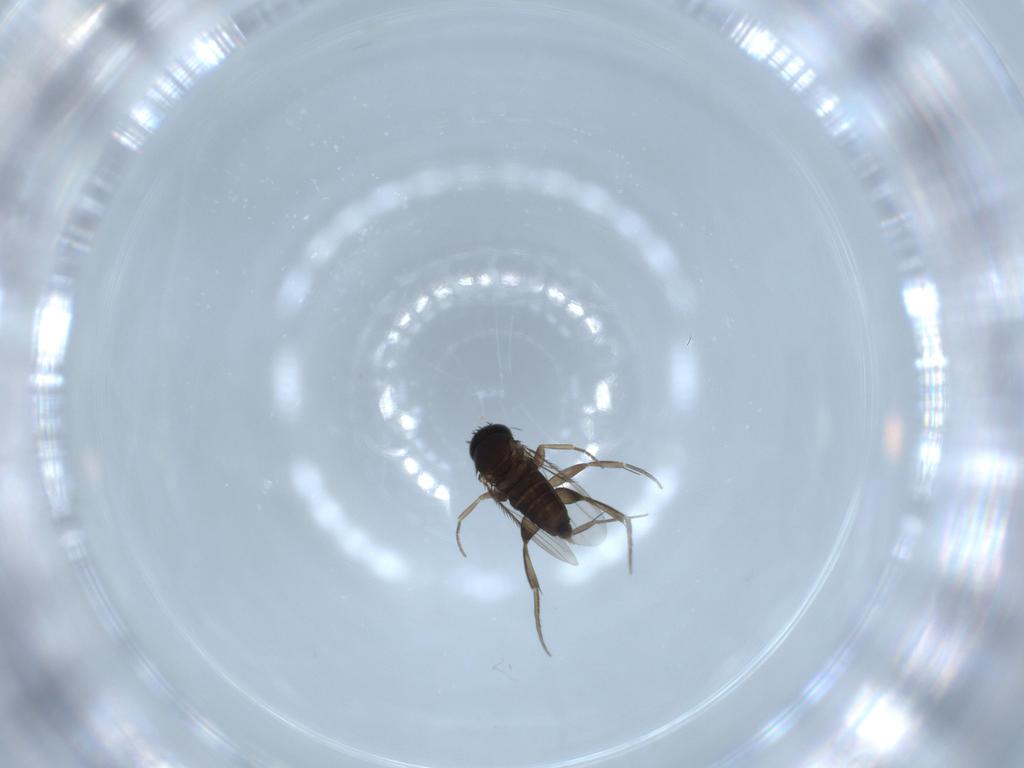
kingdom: Animalia
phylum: Arthropoda
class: Insecta
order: Diptera
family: Phoridae
